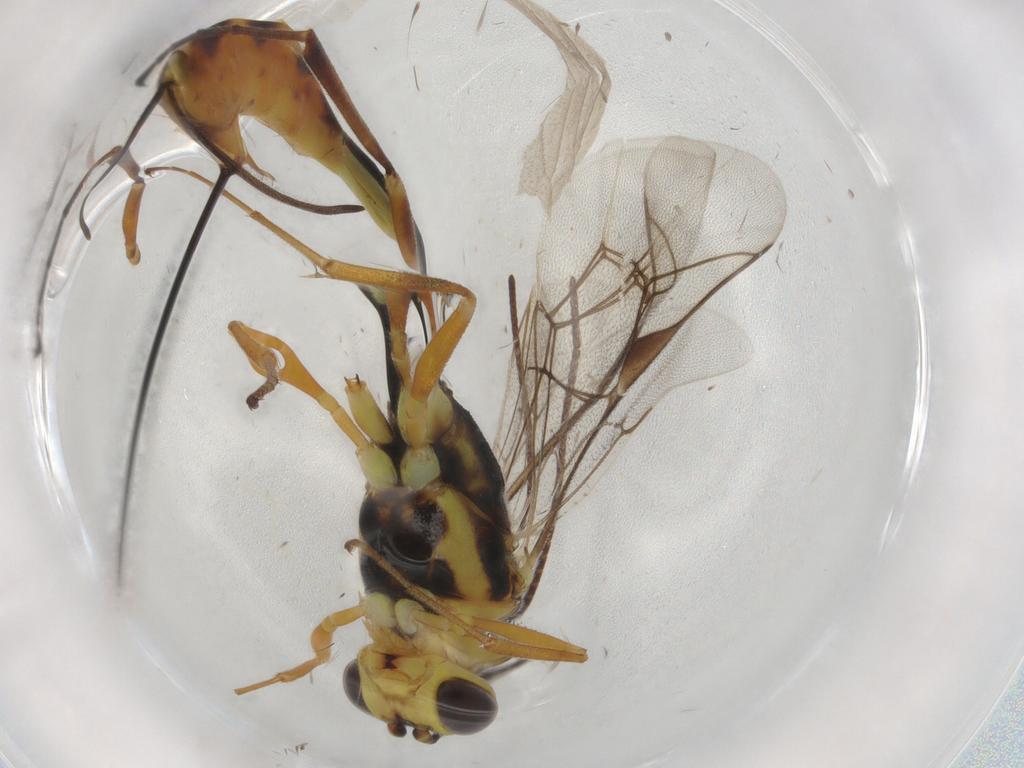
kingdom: Animalia
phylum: Arthropoda
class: Insecta
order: Hymenoptera
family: Ichneumonidae
